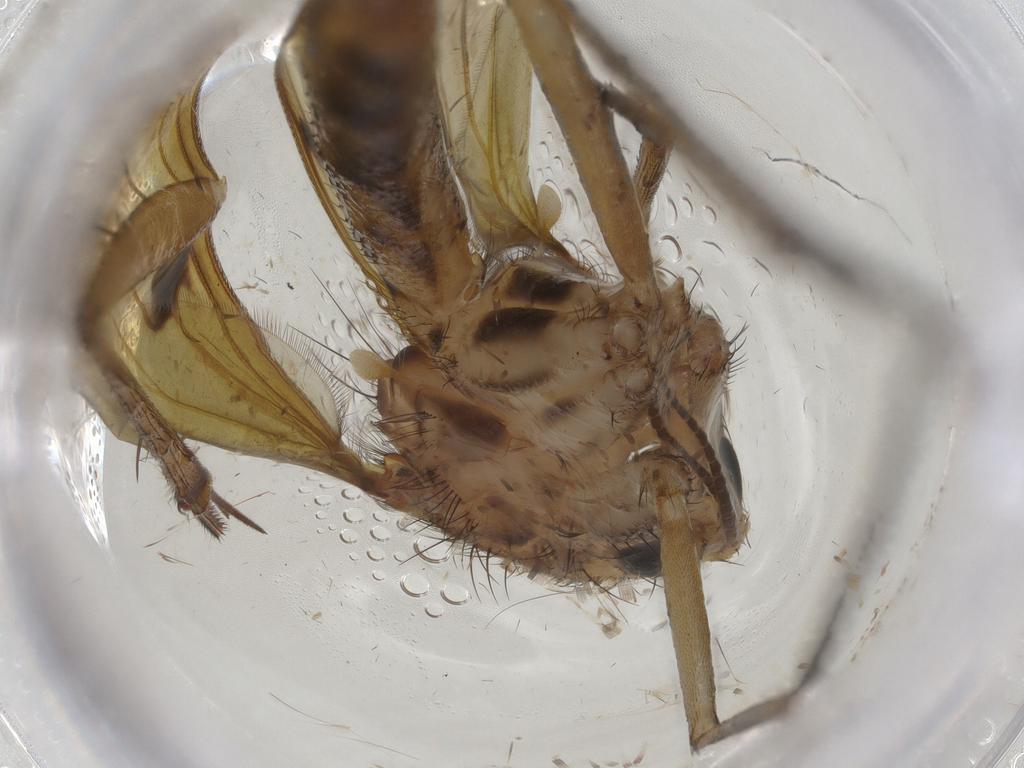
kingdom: Animalia
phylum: Arthropoda
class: Insecta
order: Diptera
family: Mycetophilidae
